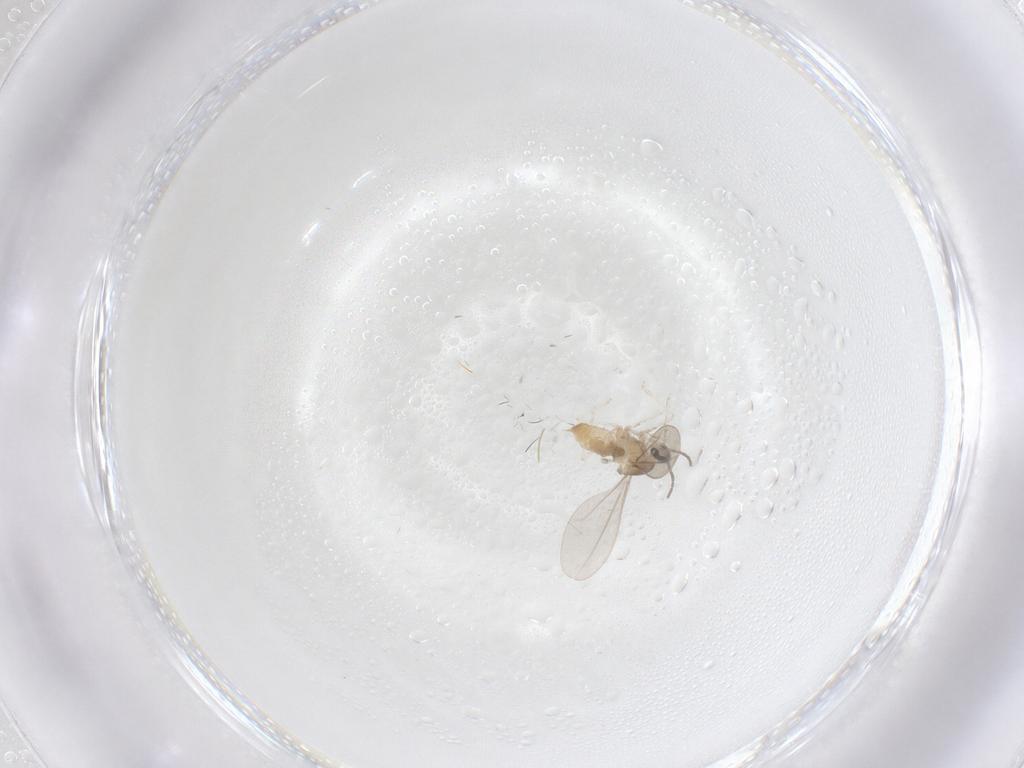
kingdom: Animalia
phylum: Arthropoda
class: Insecta
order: Diptera
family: Cecidomyiidae
